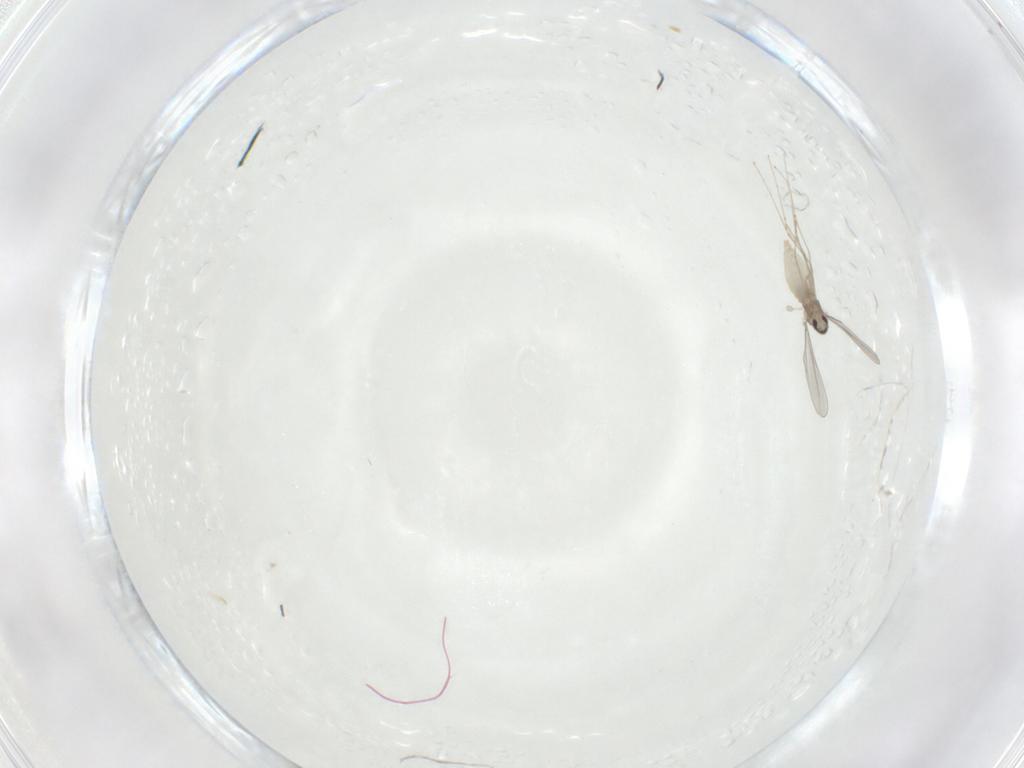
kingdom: Animalia
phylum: Arthropoda
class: Insecta
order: Diptera
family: Cecidomyiidae
